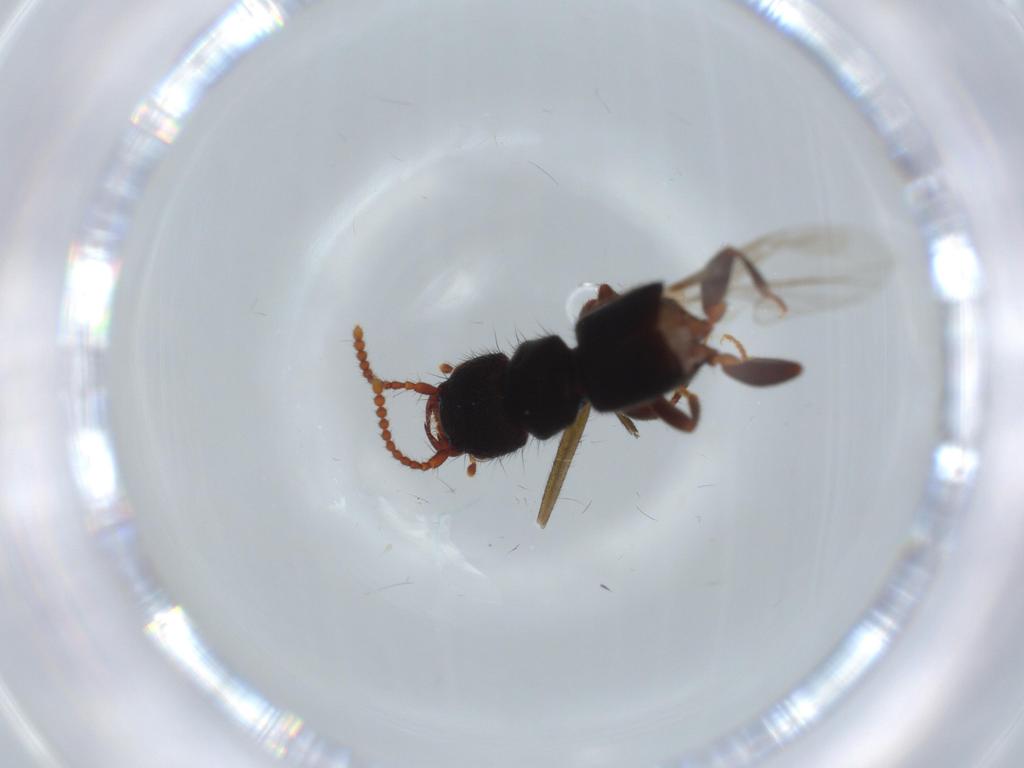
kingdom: Animalia
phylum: Arthropoda
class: Insecta
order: Coleoptera
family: Staphylinidae
